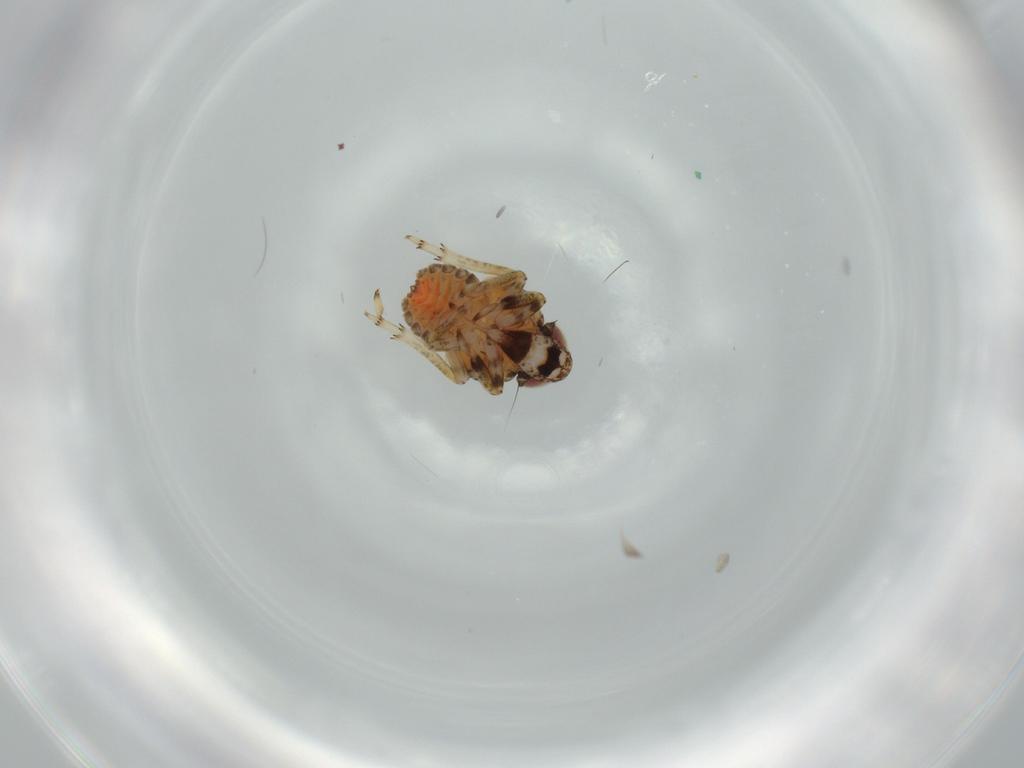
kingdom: Animalia
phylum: Arthropoda
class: Insecta
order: Hemiptera
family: Issidae
